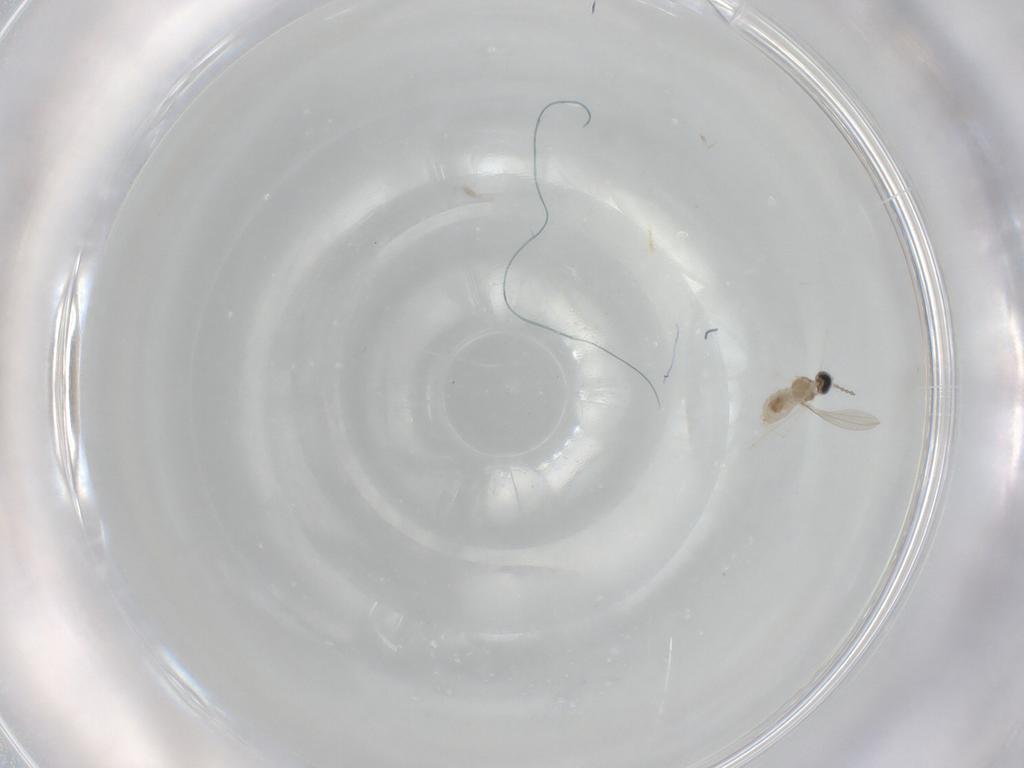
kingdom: Animalia
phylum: Arthropoda
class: Insecta
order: Diptera
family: Cecidomyiidae
